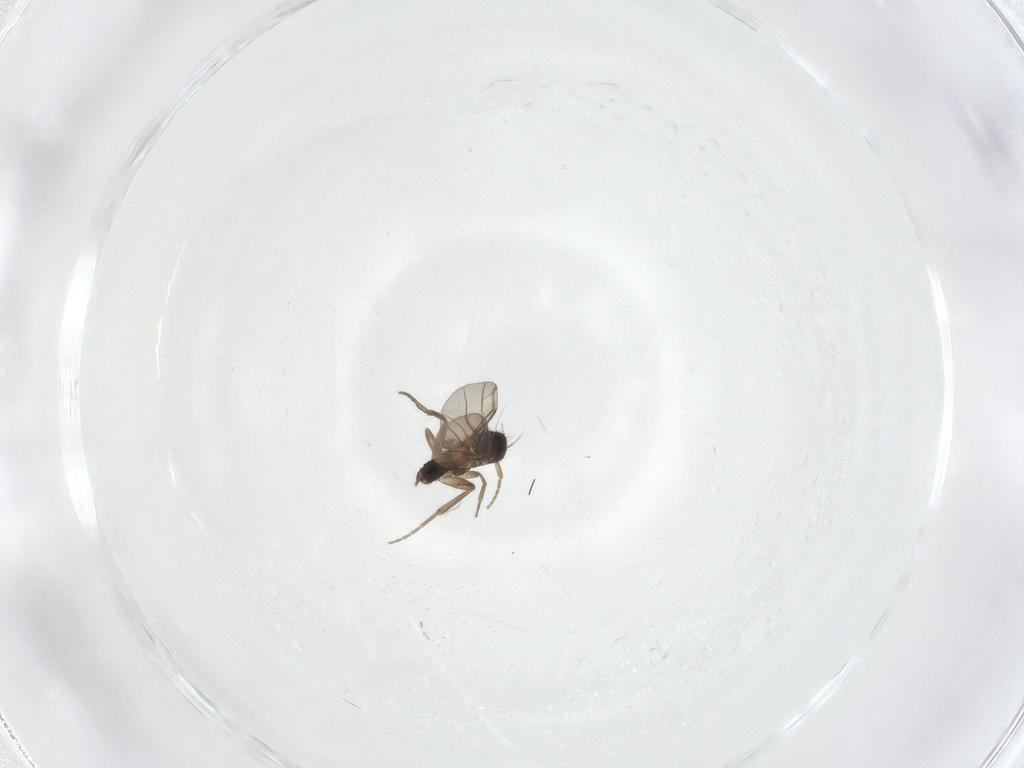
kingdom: Animalia
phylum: Arthropoda
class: Insecta
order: Diptera
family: Phoridae
